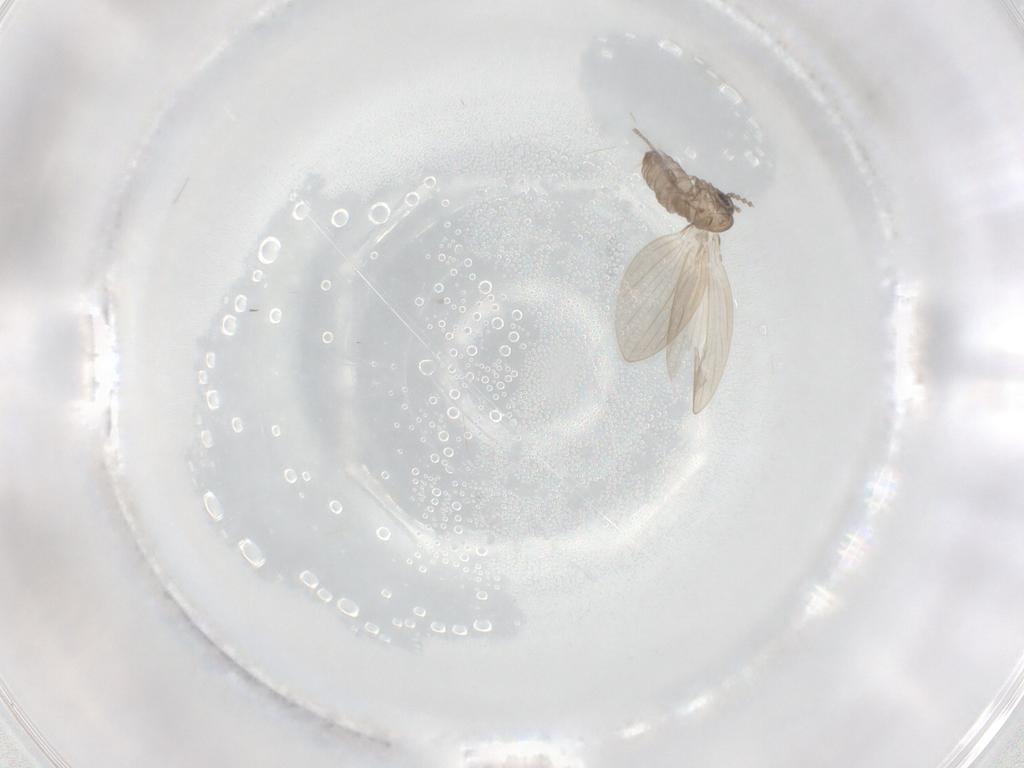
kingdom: Animalia
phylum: Arthropoda
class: Insecta
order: Diptera
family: Psychodidae
